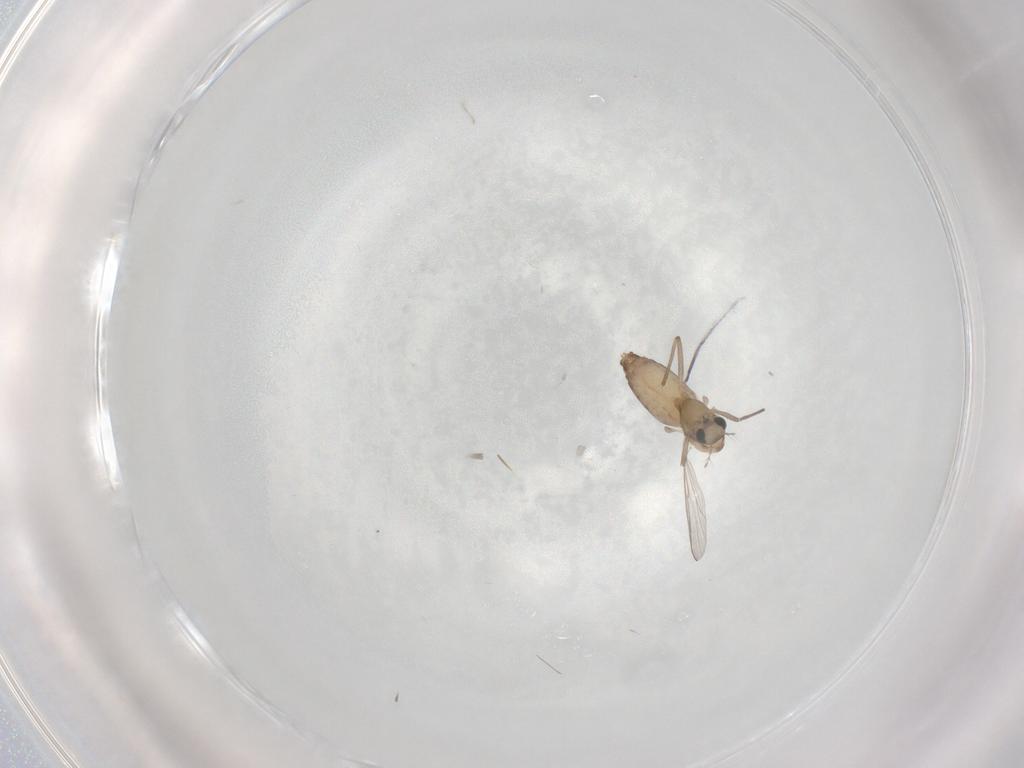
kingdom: Animalia
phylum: Arthropoda
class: Insecta
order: Diptera
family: Chironomidae
